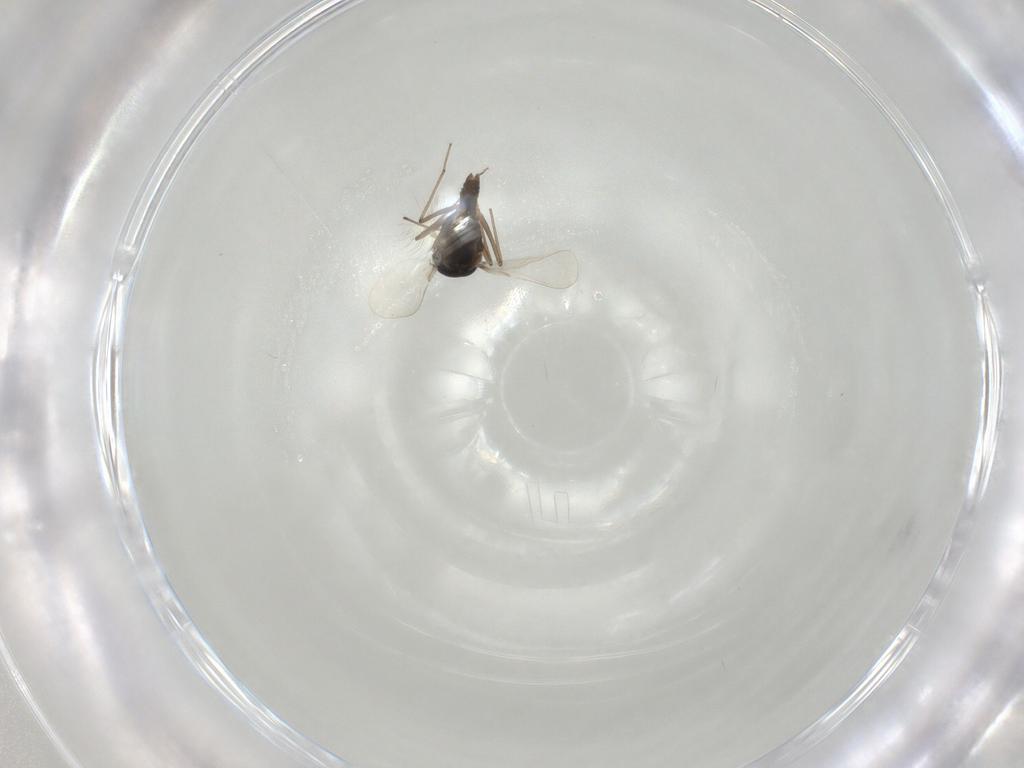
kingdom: Animalia
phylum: Arthropoda
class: Insecta
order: Diptera
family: Chironomidae
